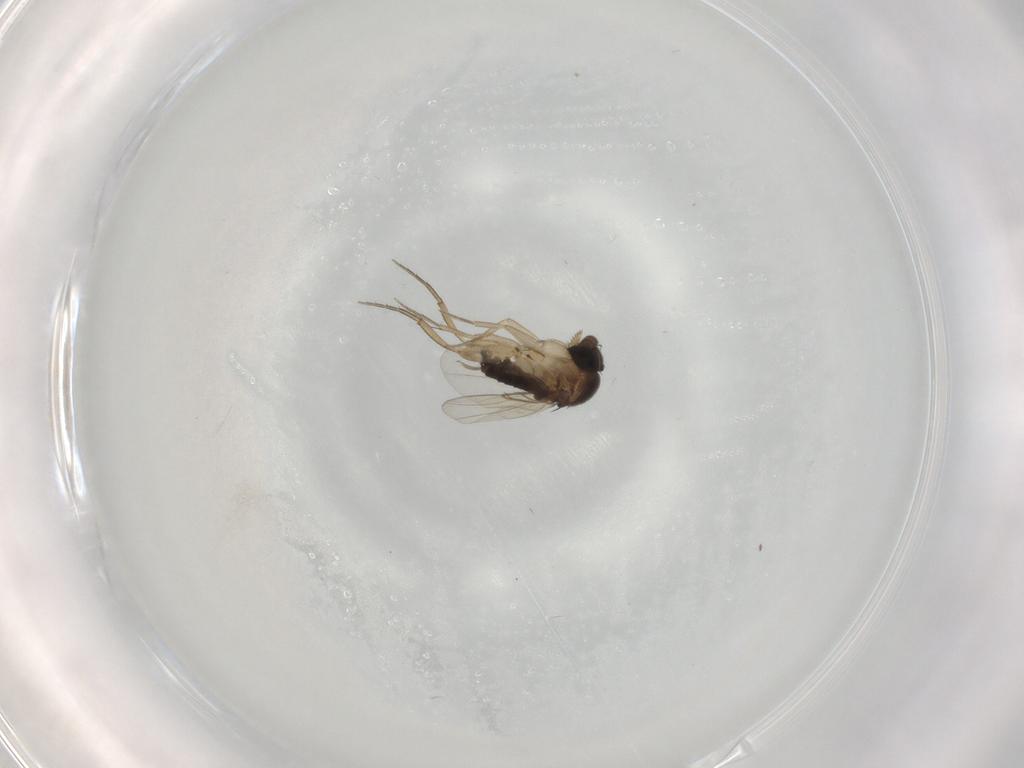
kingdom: Animalia
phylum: Arthropoda
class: Insecta
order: Diptera
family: Phoridae
